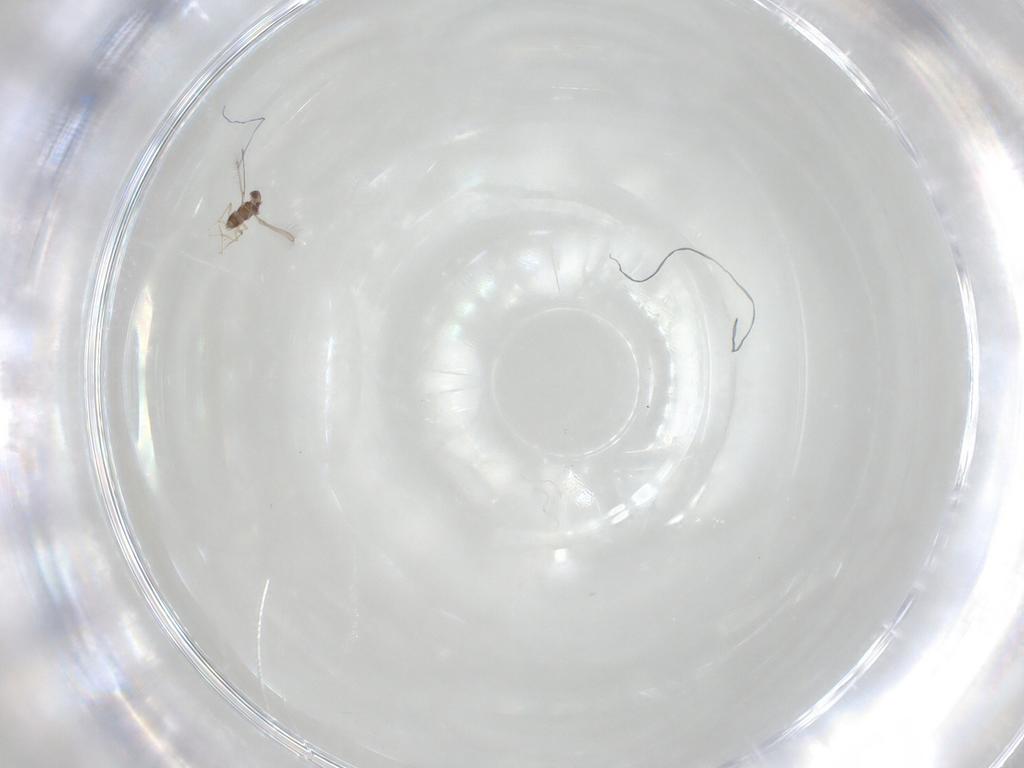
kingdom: Animalia
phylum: Arthropoda
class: Insecta
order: Hymenoptera
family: Mymaridae
